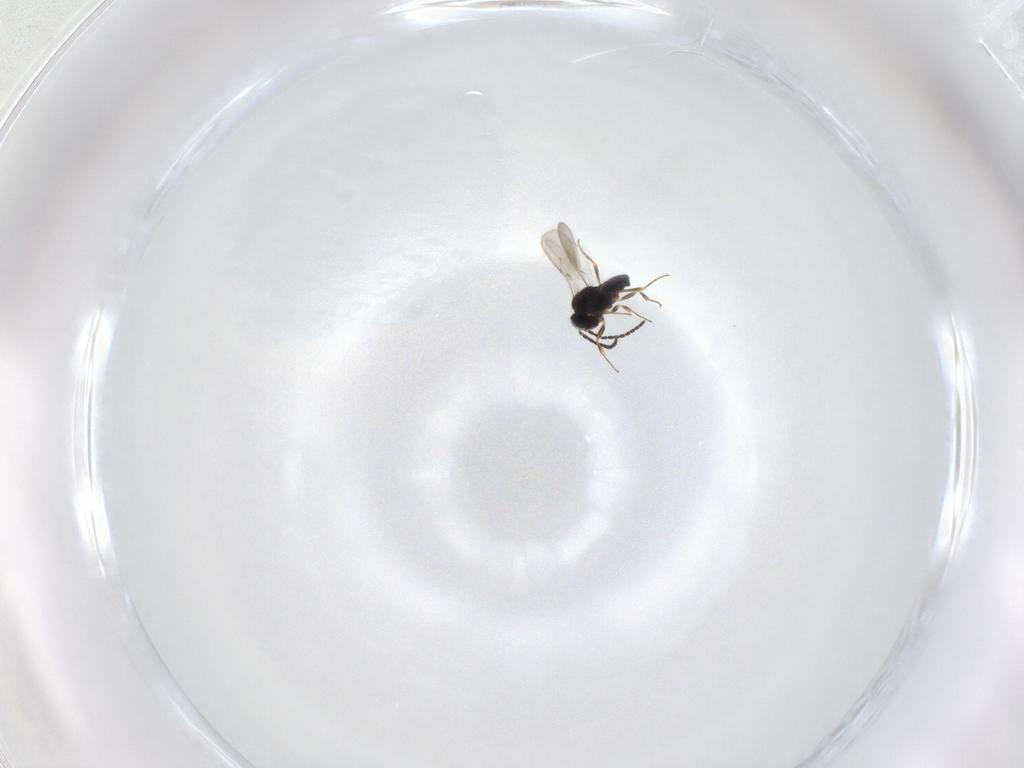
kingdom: Animalia
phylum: Arthropoda
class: Insecta
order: Hymenoptera
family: Scelionidae
